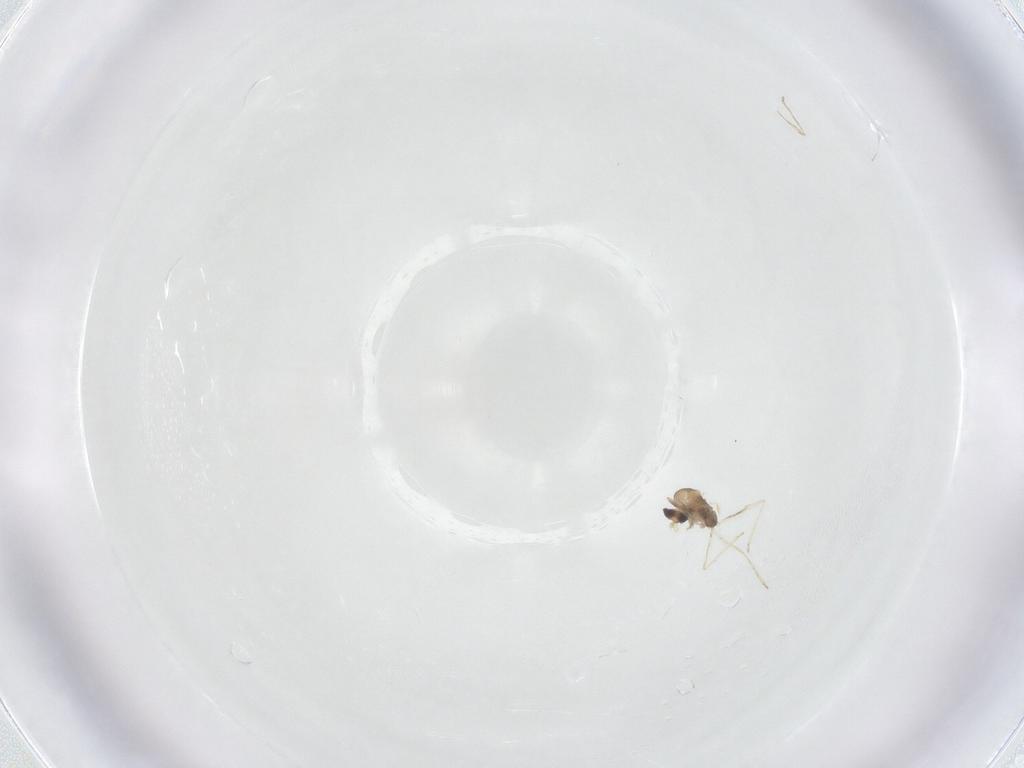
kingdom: Animalia
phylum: Arthropoda
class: Insecta
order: Diptera
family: Cecidomyiidae
